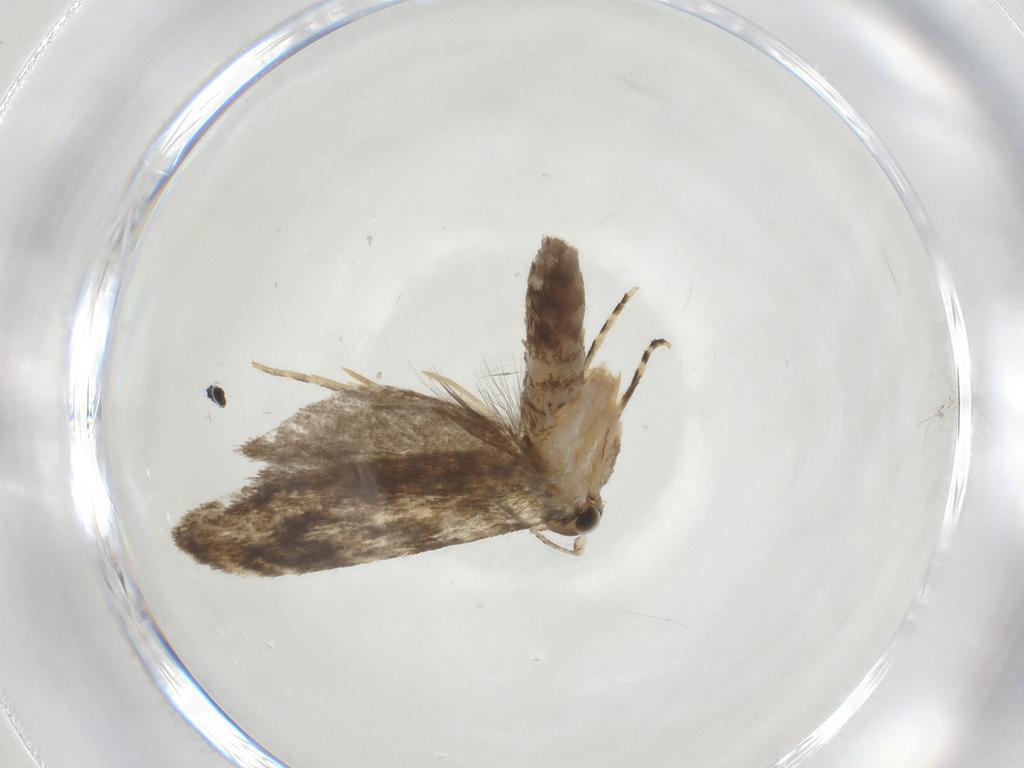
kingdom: Animalia
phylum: Arthropoda
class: Insecta
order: Lepidoptera
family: Tineidae
